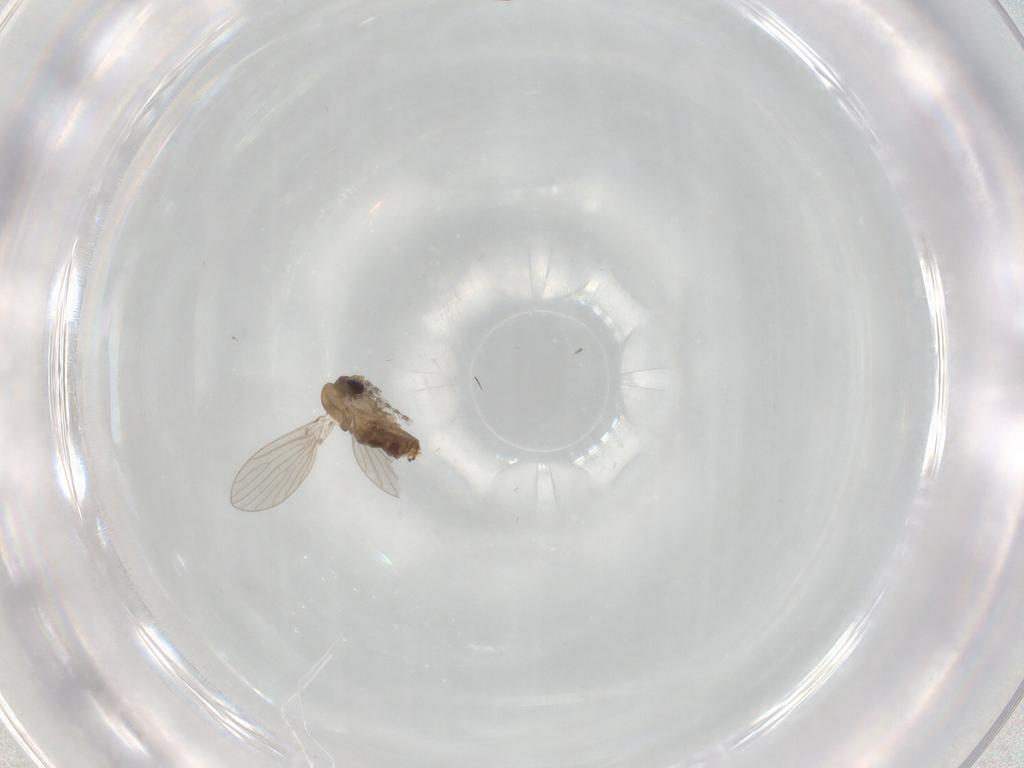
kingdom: Animalia
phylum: Arthropoda
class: Insecta
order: Diptera
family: Psychodidae
